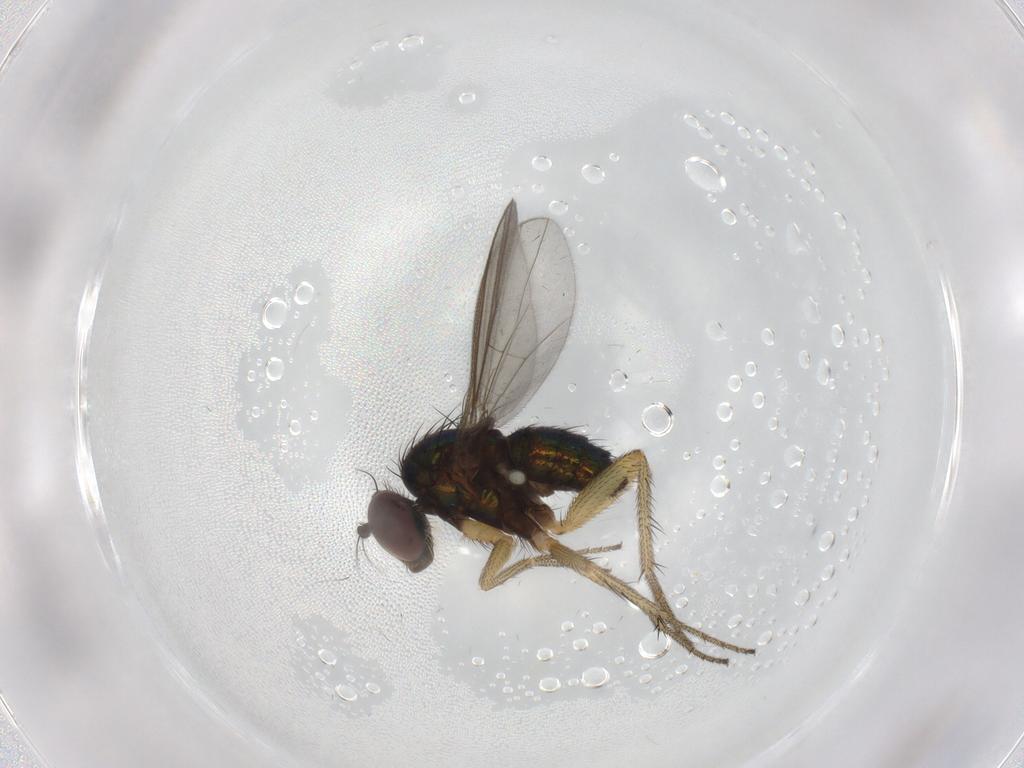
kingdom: Animalia
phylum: Arthropoda
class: Insecta
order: Diptera
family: Dolichopodidae
